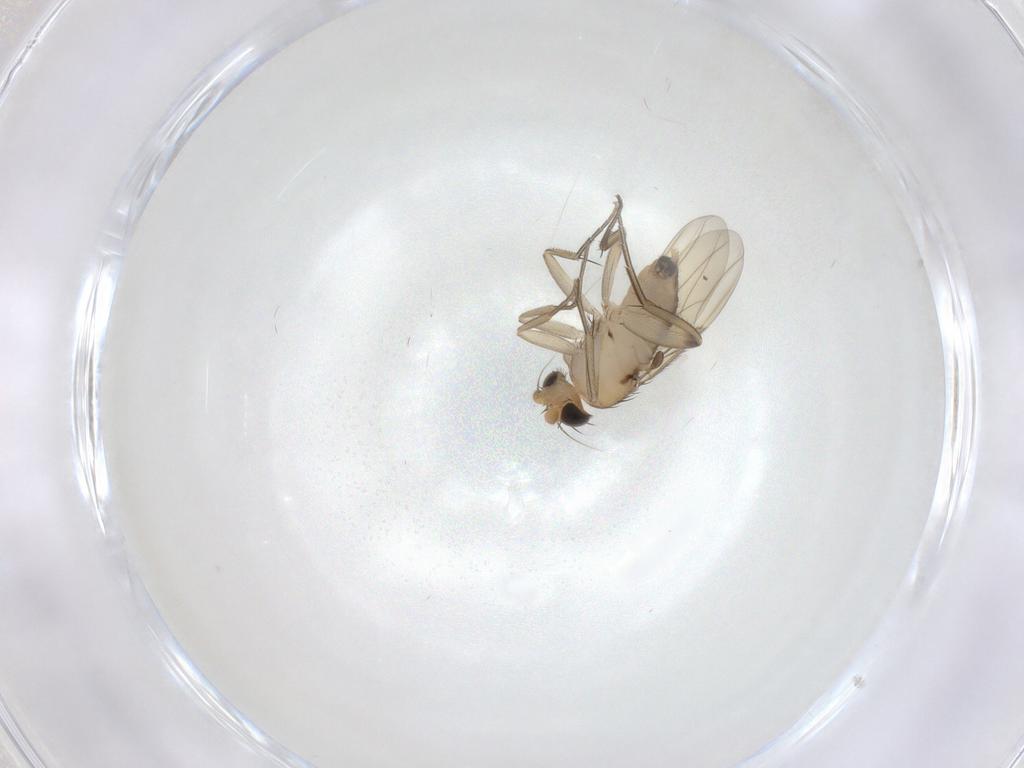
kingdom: Animalia
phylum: Arthropoda
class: Insecta
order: Diptera
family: Phoridae
